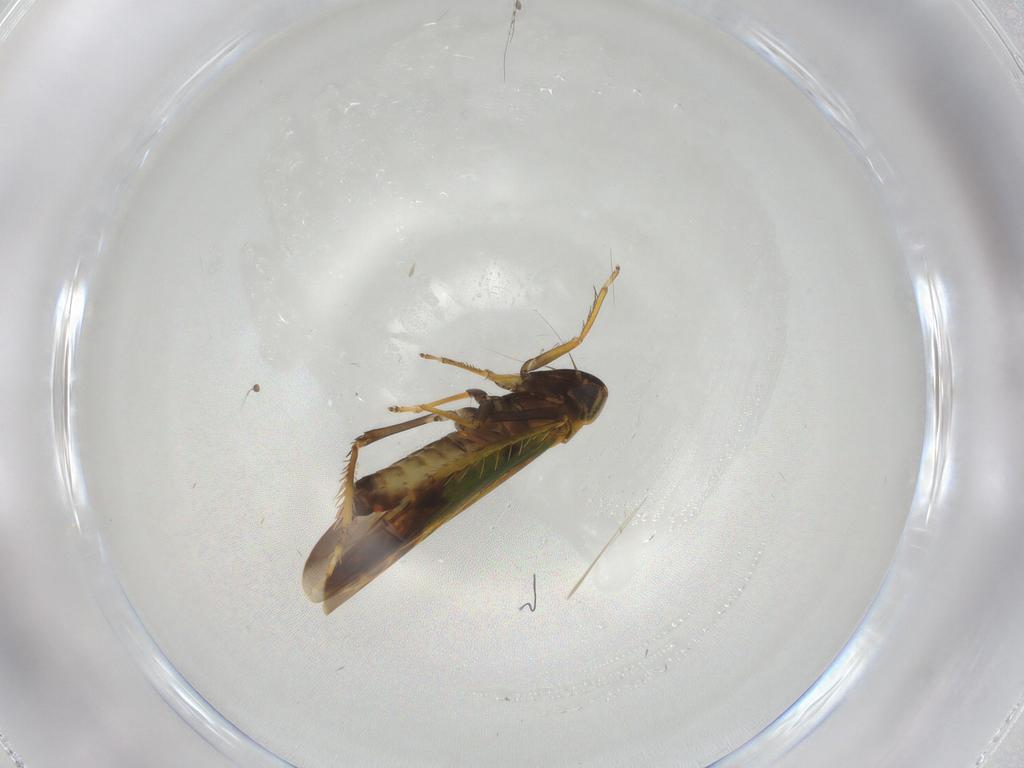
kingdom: Animalia
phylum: Arthropoda
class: Insecta
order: Hemiptera
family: Cicadellidae
